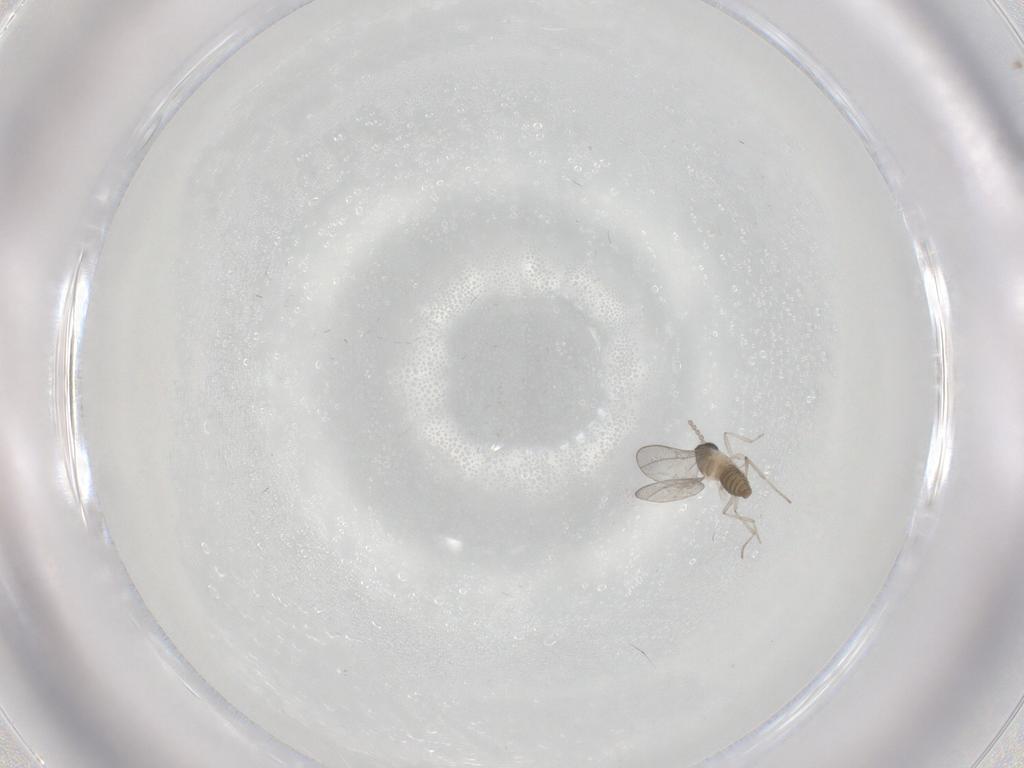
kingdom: Animalia
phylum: Arthropoda
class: Insecta
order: Diptera
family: Cecidomyiidae
